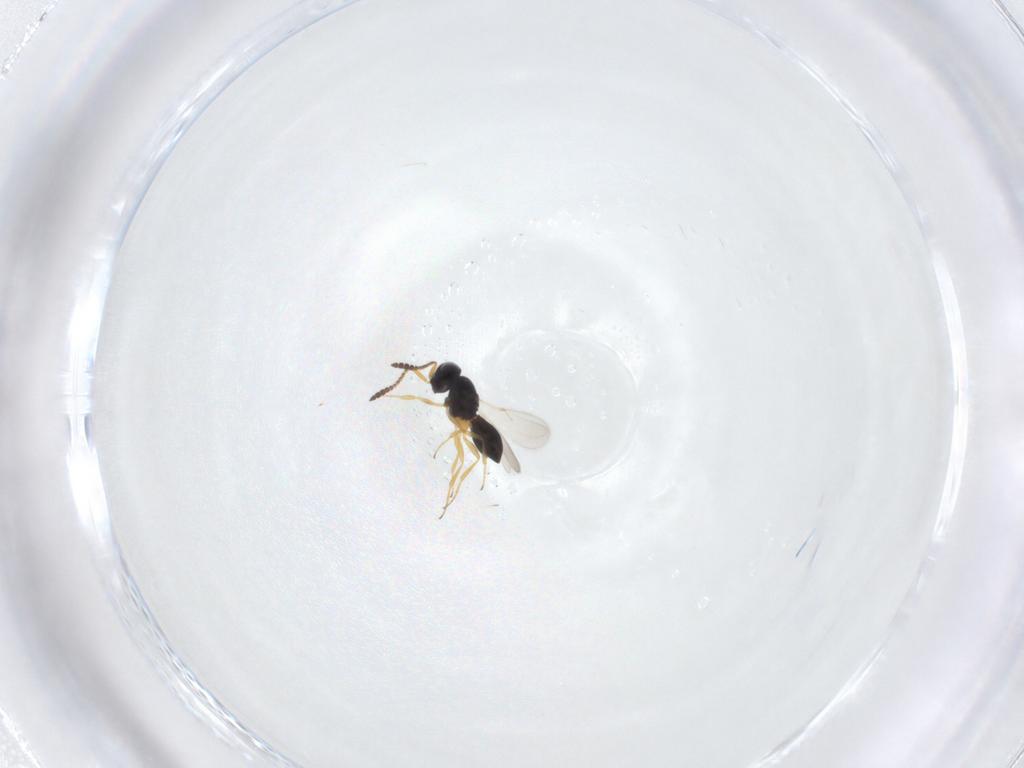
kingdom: Animalia
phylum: Arthropoda
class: Insecta
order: Hymenoptera
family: Scelionidae
